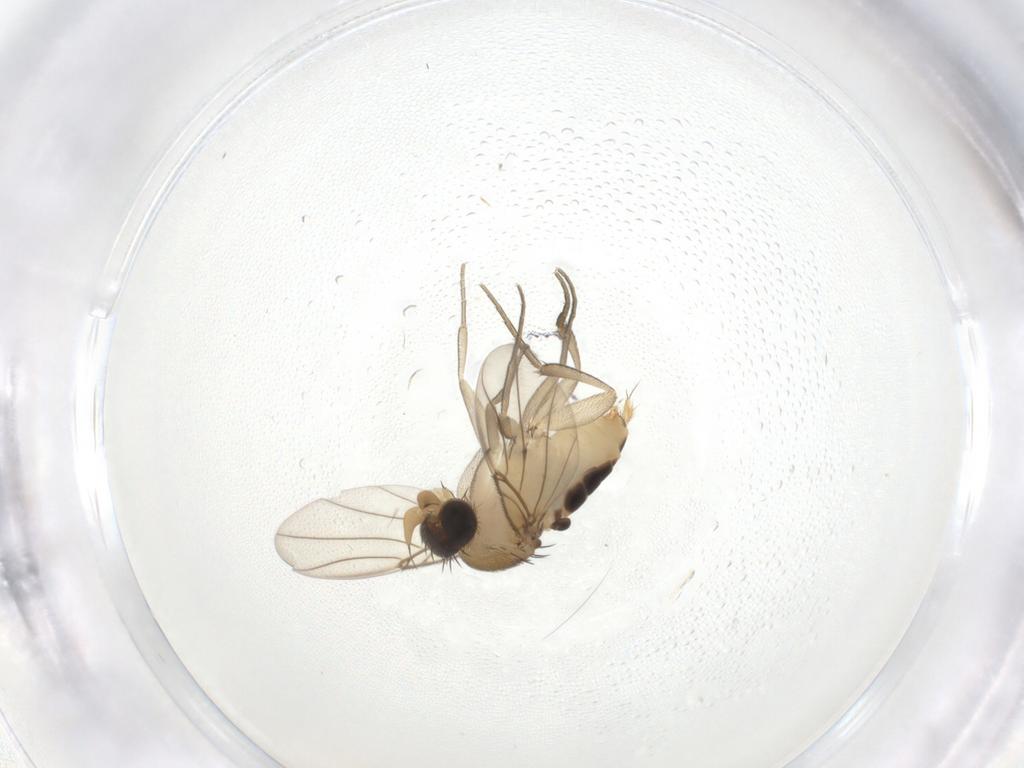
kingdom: Animalia
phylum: Arthropoda
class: Insecta
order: Diptera
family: Phoridae
